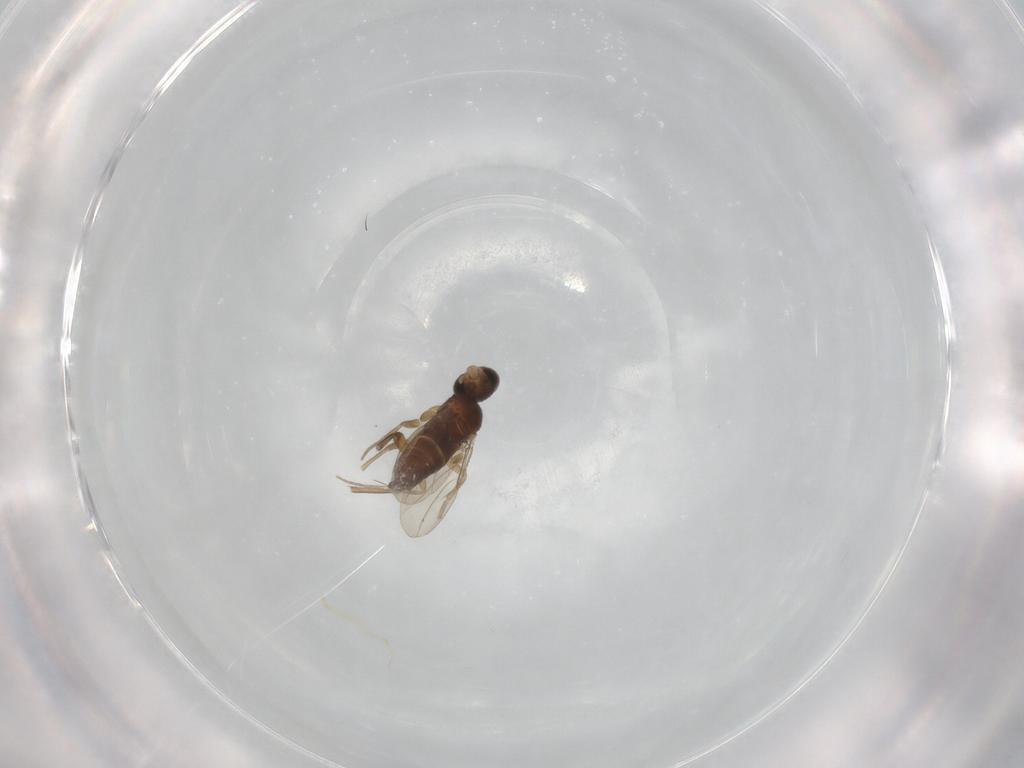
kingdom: Animalia
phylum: Arthropoda
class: Insecta
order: Diptera
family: Phoridae
